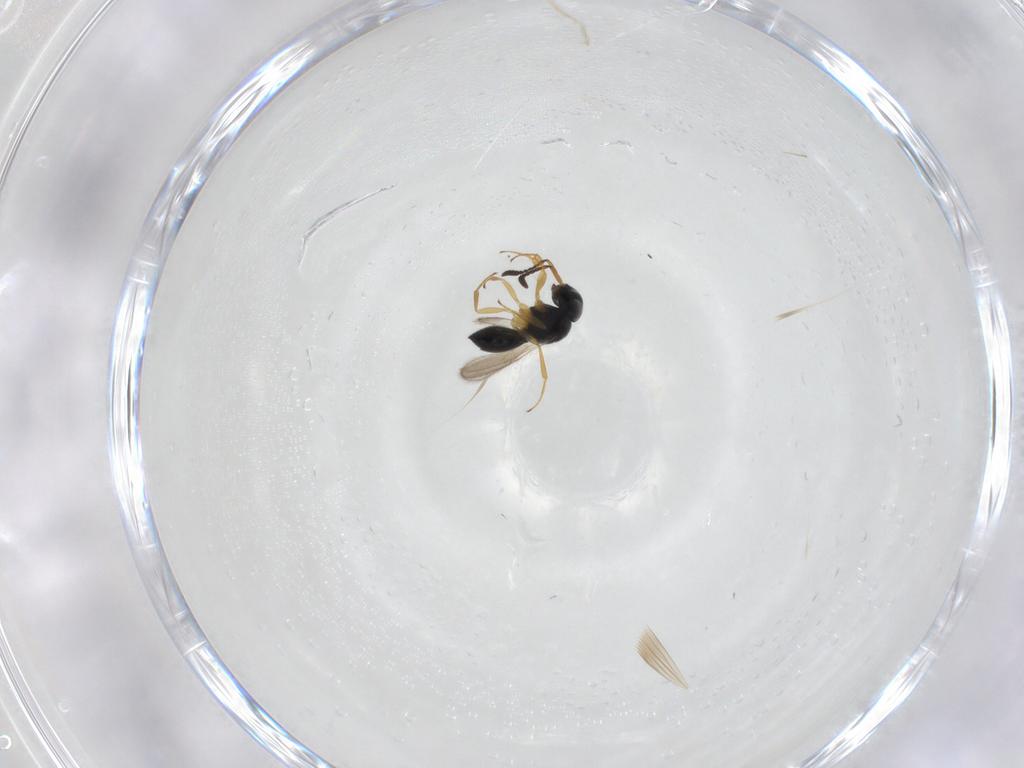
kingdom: Animalia
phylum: Arthropoda
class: Insecta
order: Hymenoptera
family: Scelionidae
